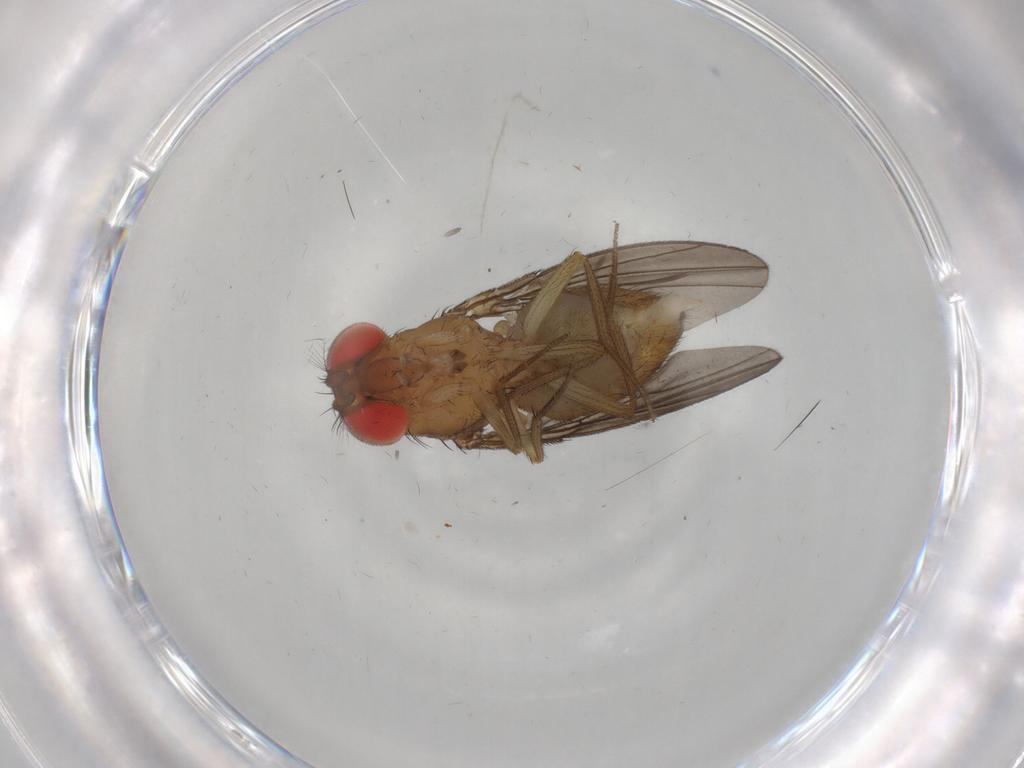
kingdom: Animalia
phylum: Arthropoda
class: Insecta
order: Diptera
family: Drosophilidae
